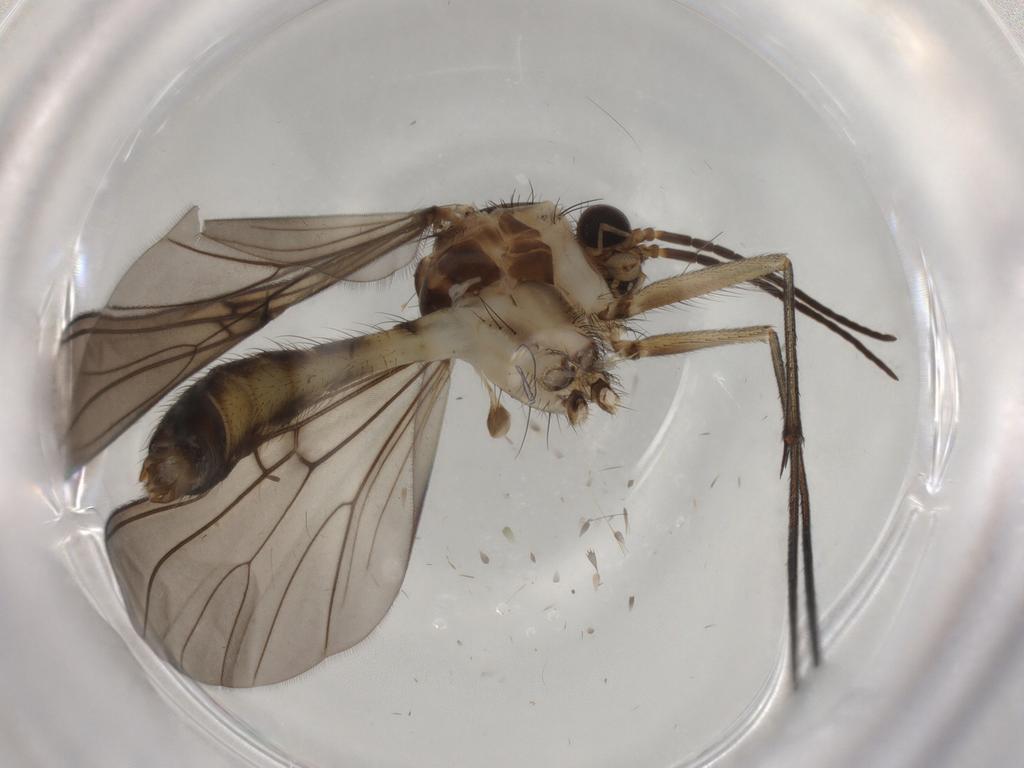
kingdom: Animalia
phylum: Arthropoda
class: Insecta
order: Diptera
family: Mycetophilidae
